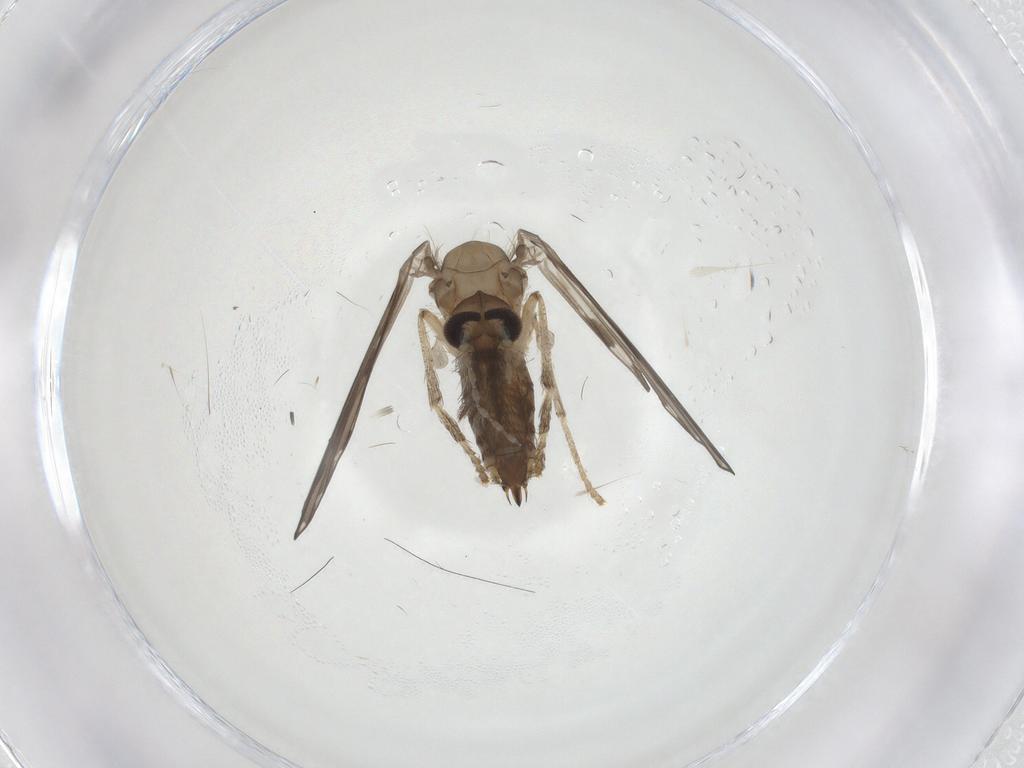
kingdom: Animalia
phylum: Arthropoda
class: Insecta
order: Diptera
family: Psychodidae
